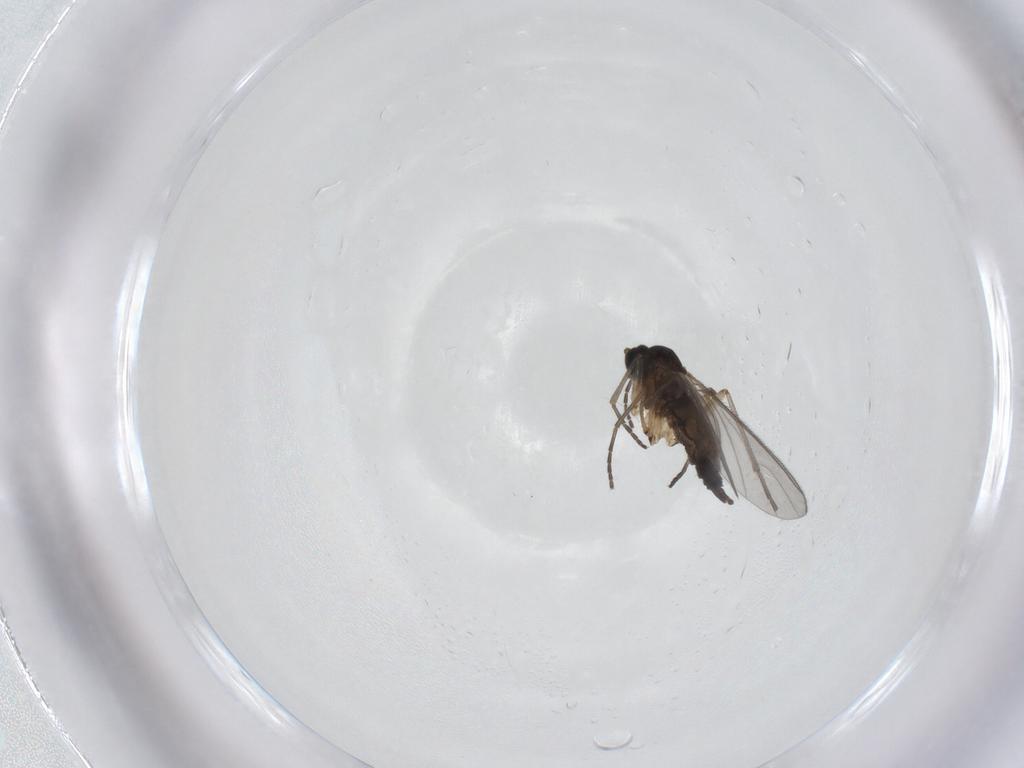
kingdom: Animalia
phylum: Arthropoda
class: Insecta
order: Diptera
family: Sciaridae
